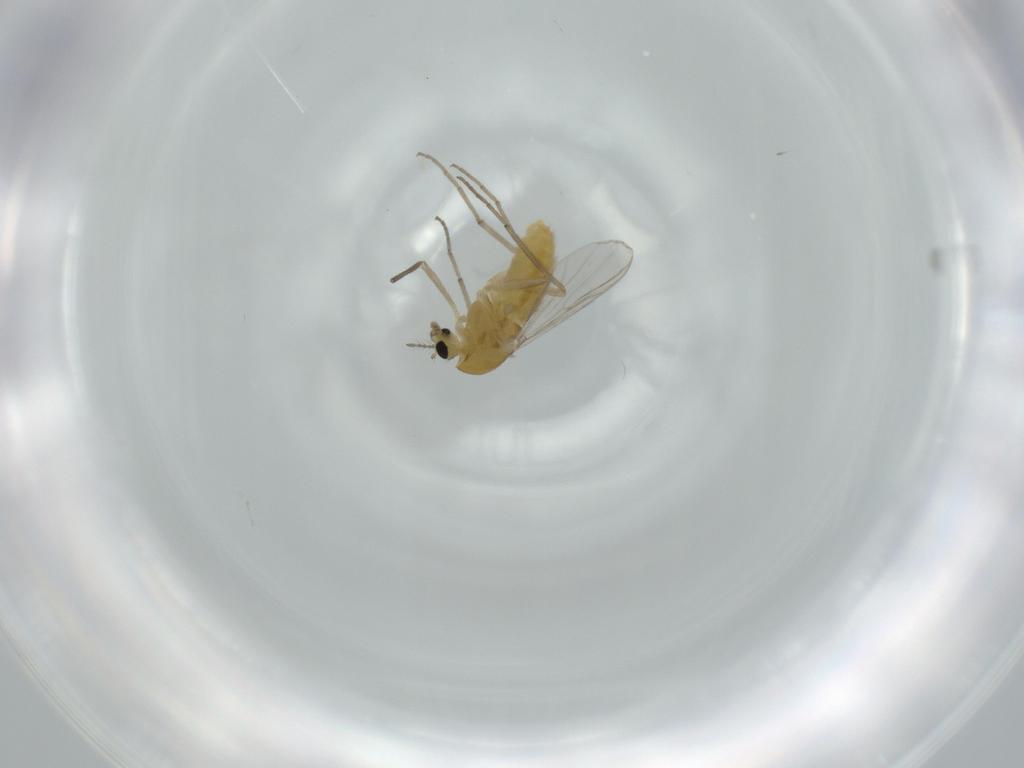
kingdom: Animalia
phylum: Arthropoda
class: Insecta
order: Diptera
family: Chironomidae
